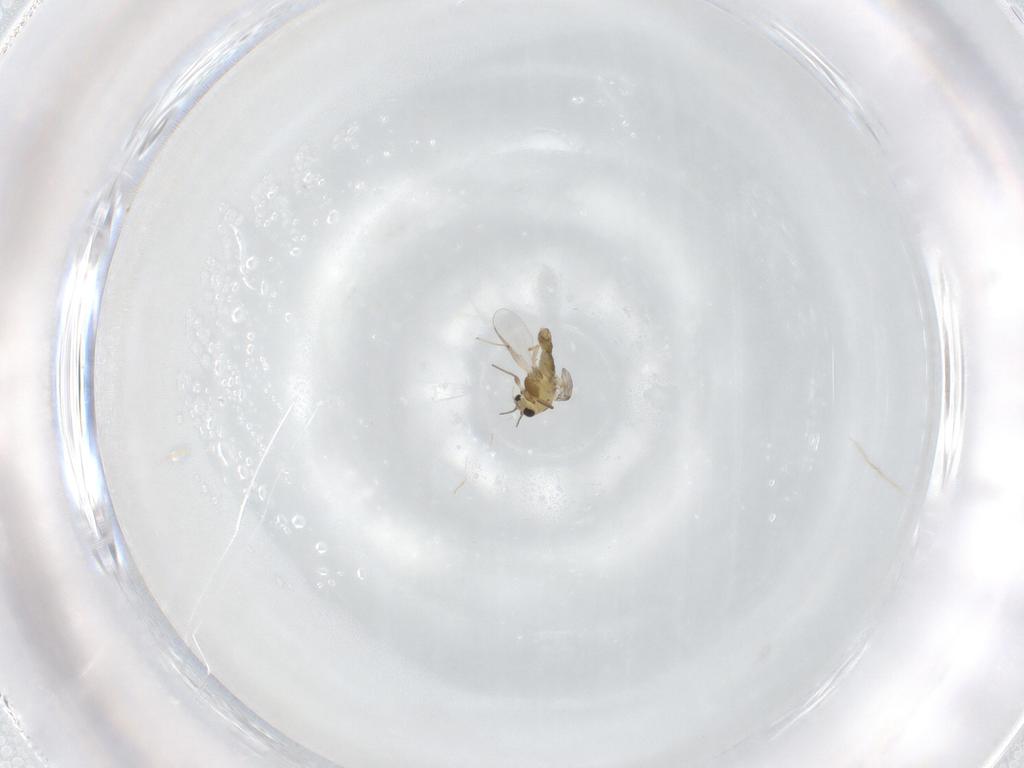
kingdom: Animalia
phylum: Arthropoda
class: Insecta
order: Diptera
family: Chironomidae
